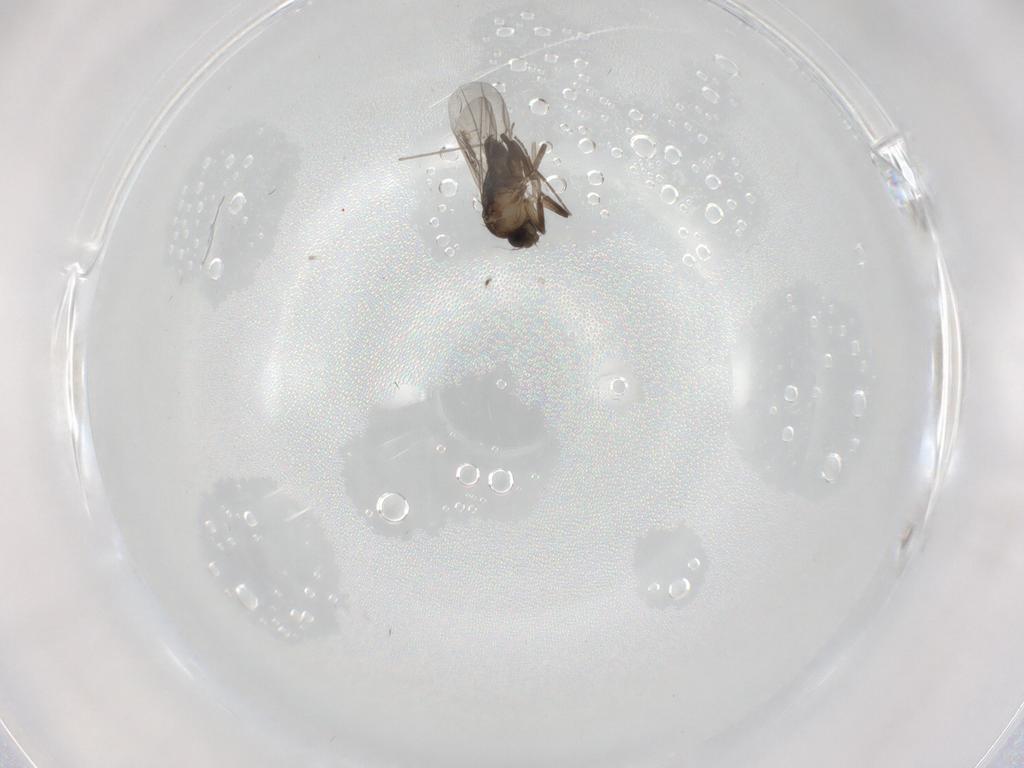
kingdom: Animalia
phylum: Arthropoda
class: Insecta
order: Diptera
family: Phoridae
